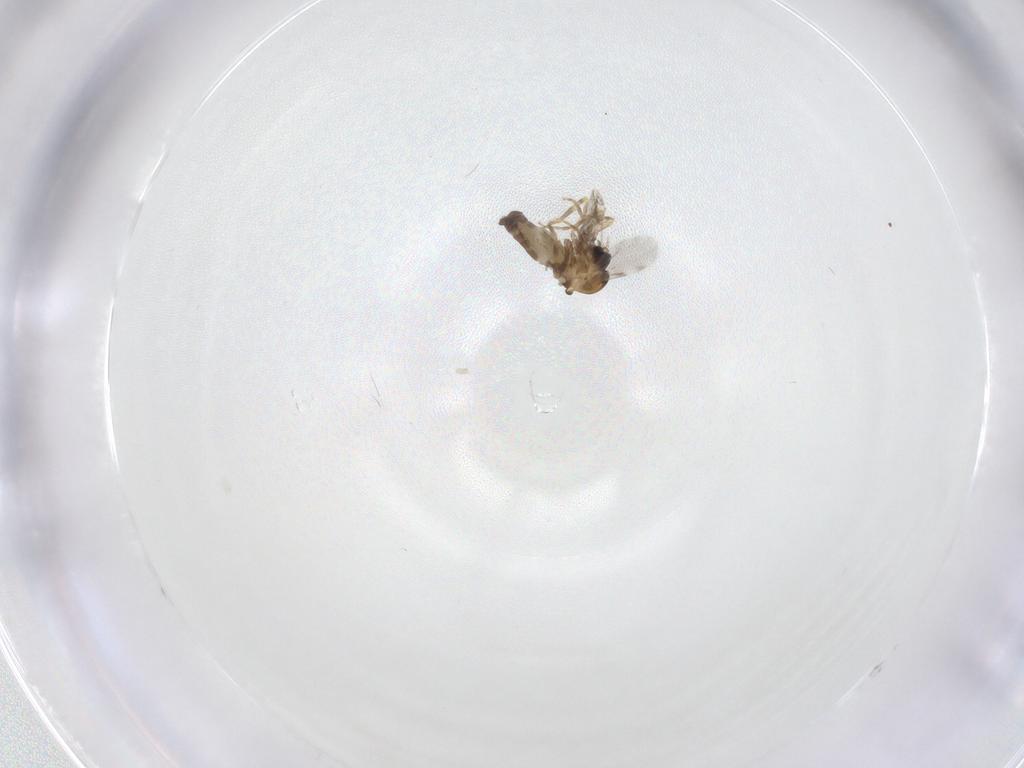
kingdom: Animalia
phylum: Arthropoda
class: Insecta
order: Diptera
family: Ceratopogonidae
